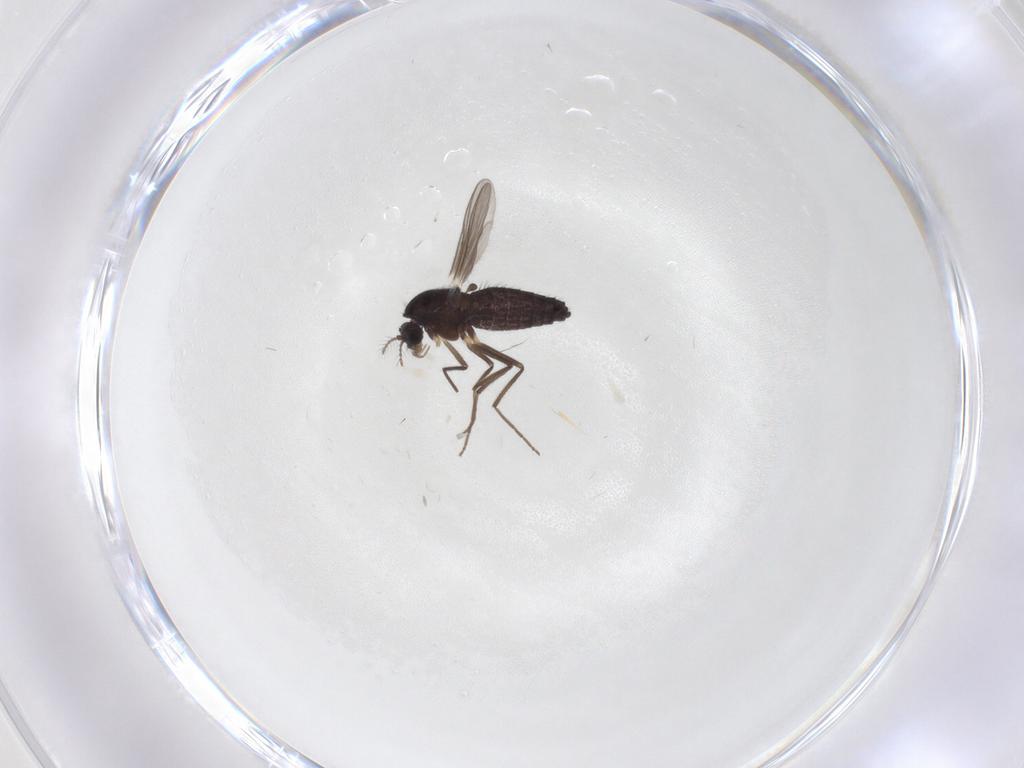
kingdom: Animalia
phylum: Arthropoda
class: Insecta
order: Diptera
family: Chironomidae
